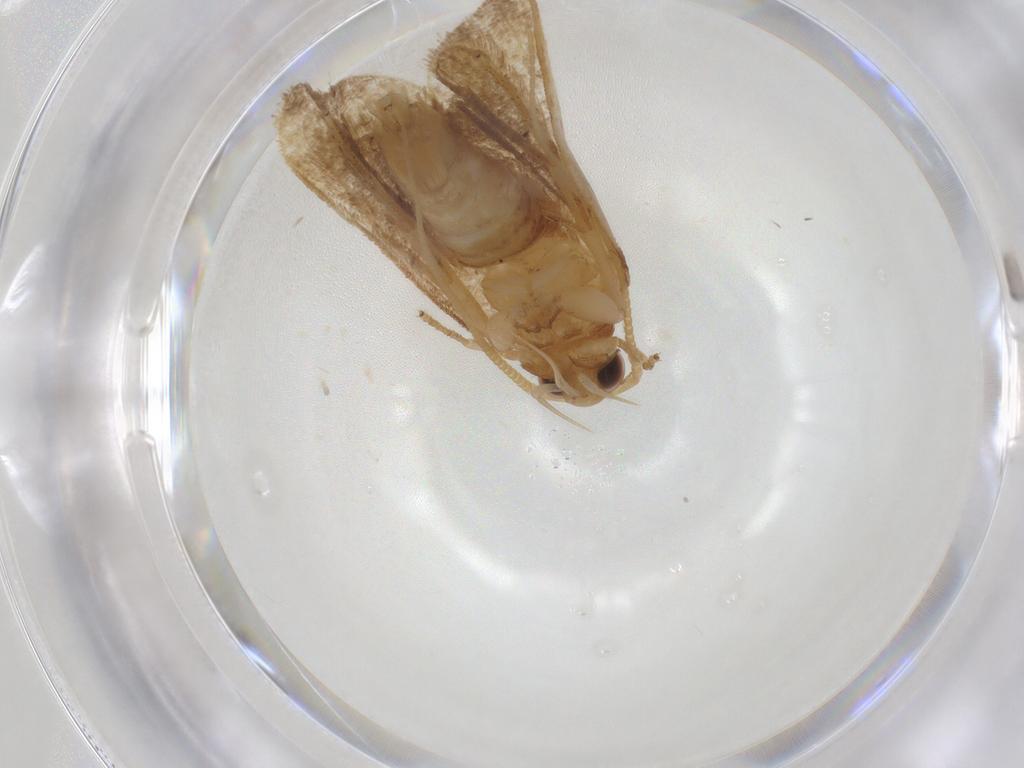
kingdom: Animalia
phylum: Arthropoda
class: Insecta
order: Lepidoptera
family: Lecithoceridae
